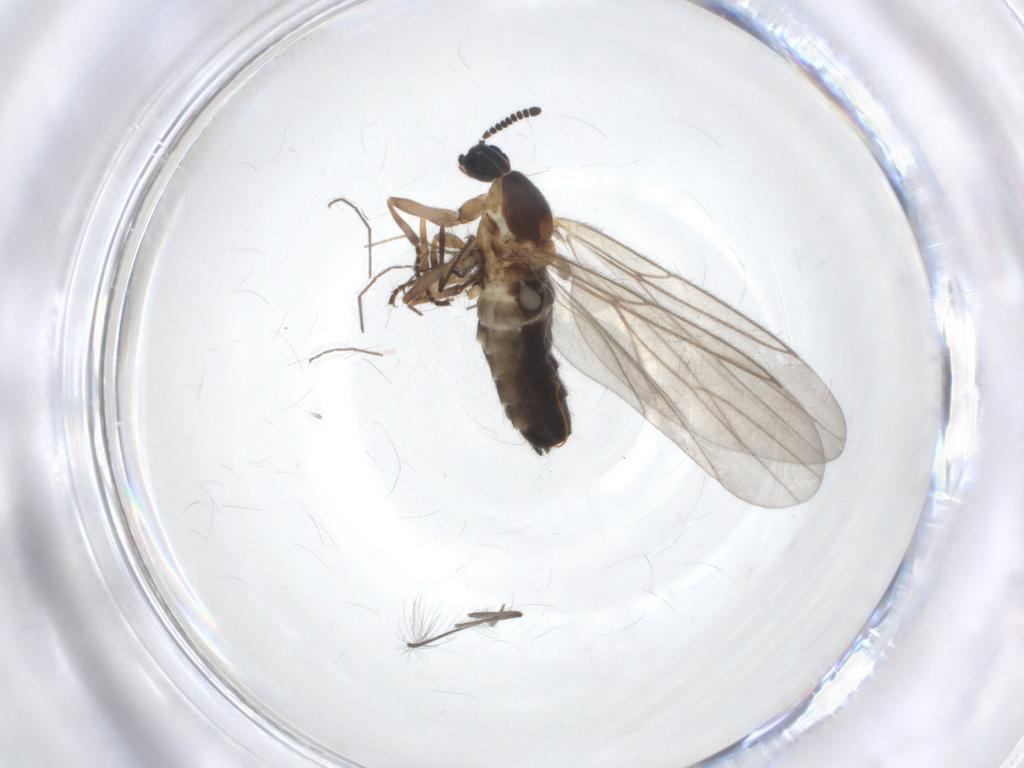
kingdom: Animalia
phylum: Arthropoda
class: Insecta
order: Diptera
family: Scatopsidae
